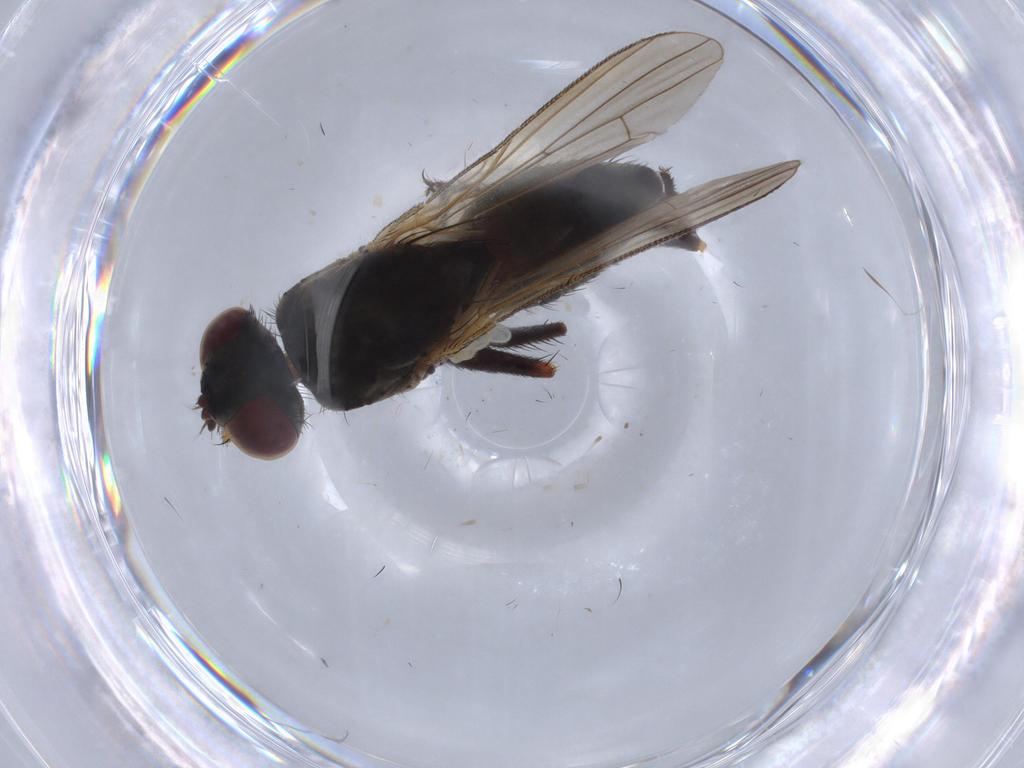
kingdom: Animalia
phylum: Arthropoda
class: Insecta
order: Diptera
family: Muscidae
